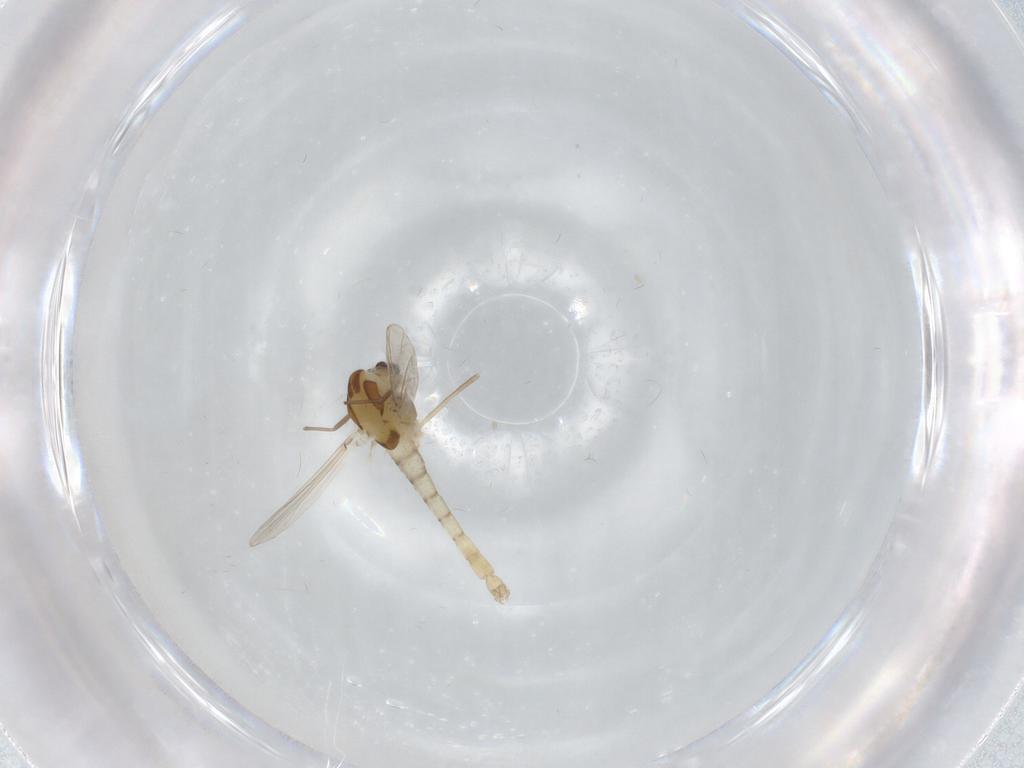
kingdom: Animalia
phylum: Arthropoda
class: Insecta
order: Diptera
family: Chironomidae
